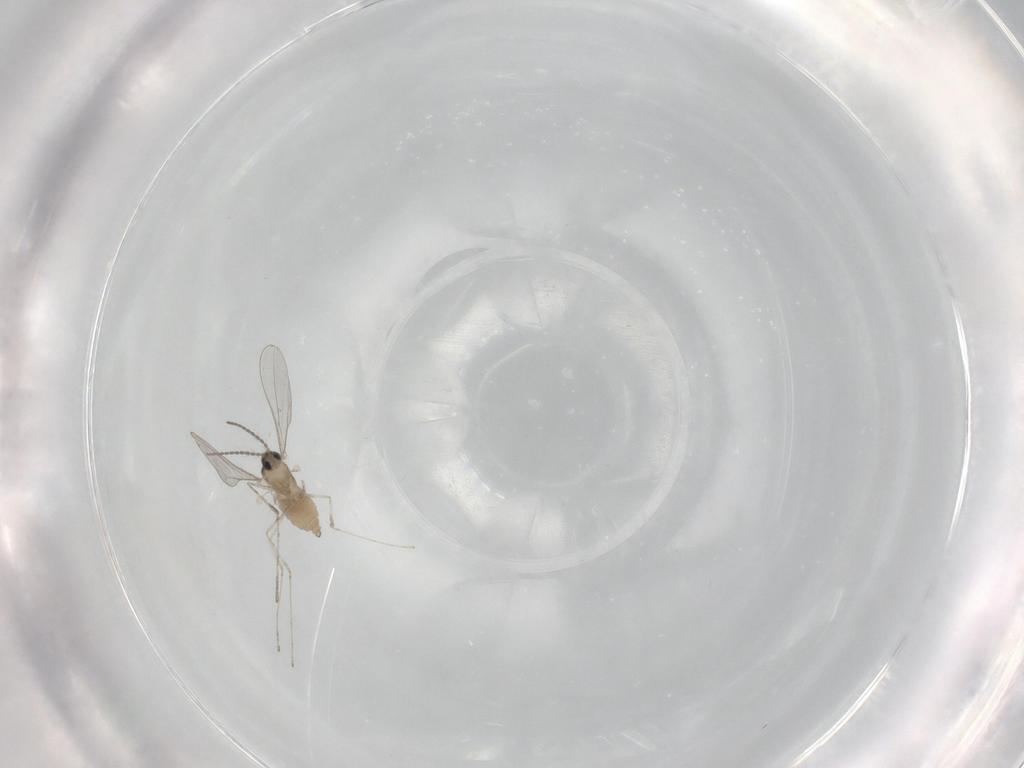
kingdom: Animalia
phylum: Arthropoda
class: Insecta
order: Diptera
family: Cecidomyiidae
